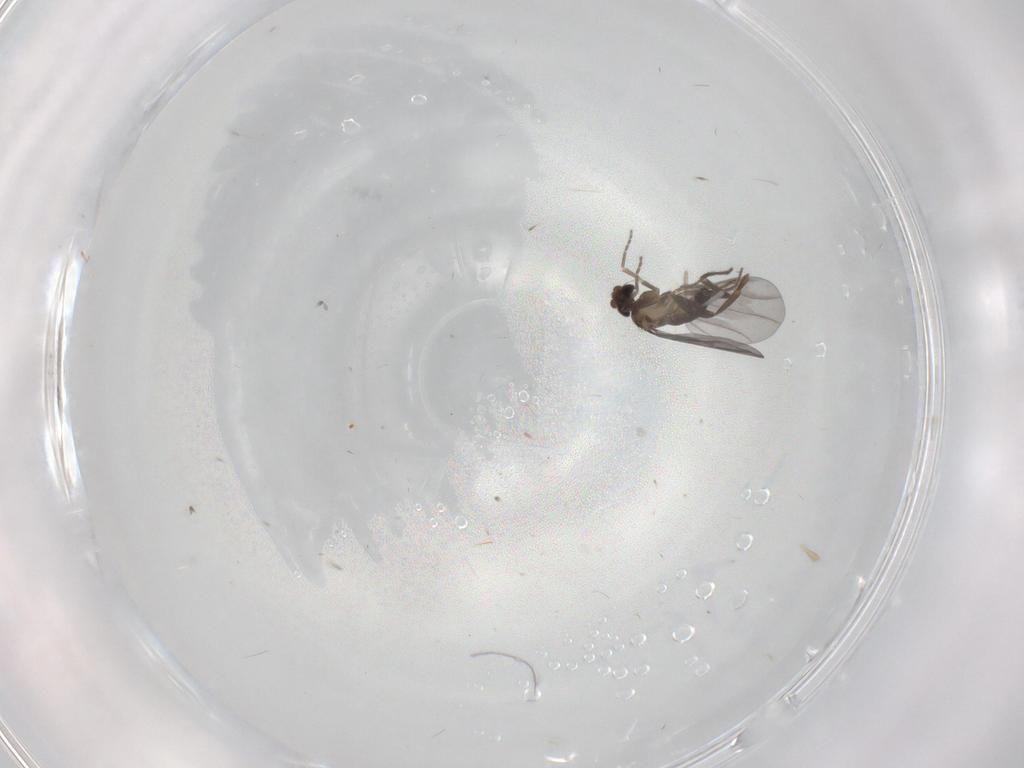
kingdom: Animalia
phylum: Arthropoda
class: Insecta
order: Diptera
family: Phoridae
